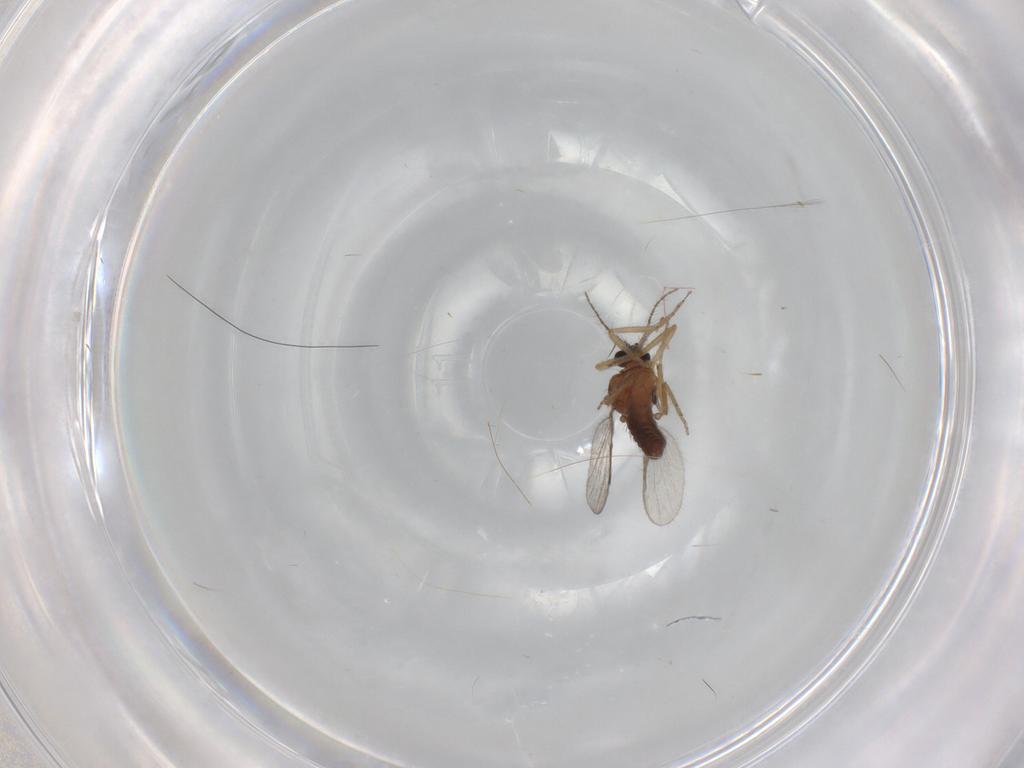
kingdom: Animalia
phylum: Arthropoda
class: Insecta
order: Diptera
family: Ceratopogonidae
